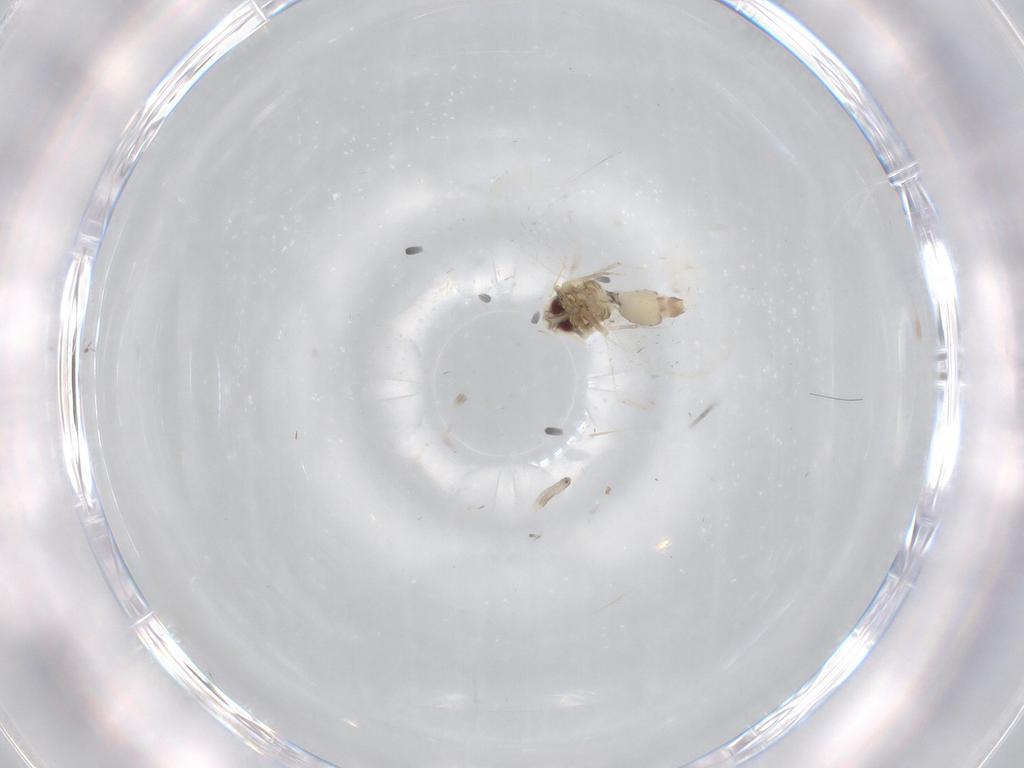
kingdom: Animalia
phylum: Arthropoda
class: Insecta
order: Hemiptera
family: Aleyrodidae
